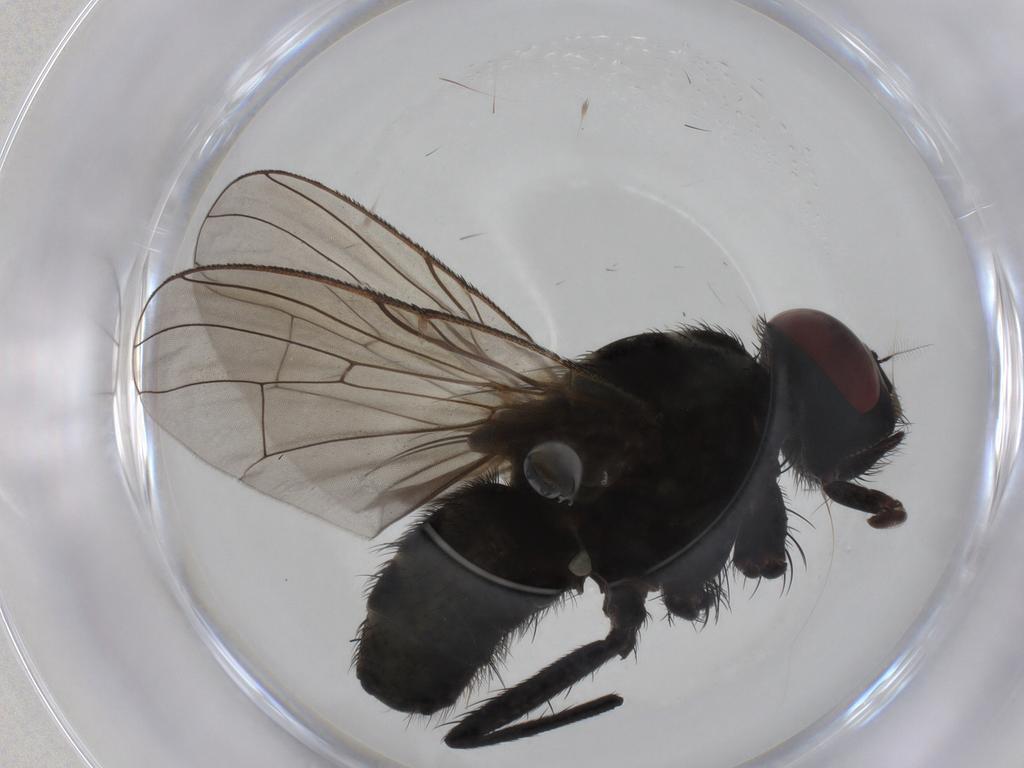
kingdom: Animalia
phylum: Arthropoda
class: Insecta
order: Diptera
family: Muscidae
